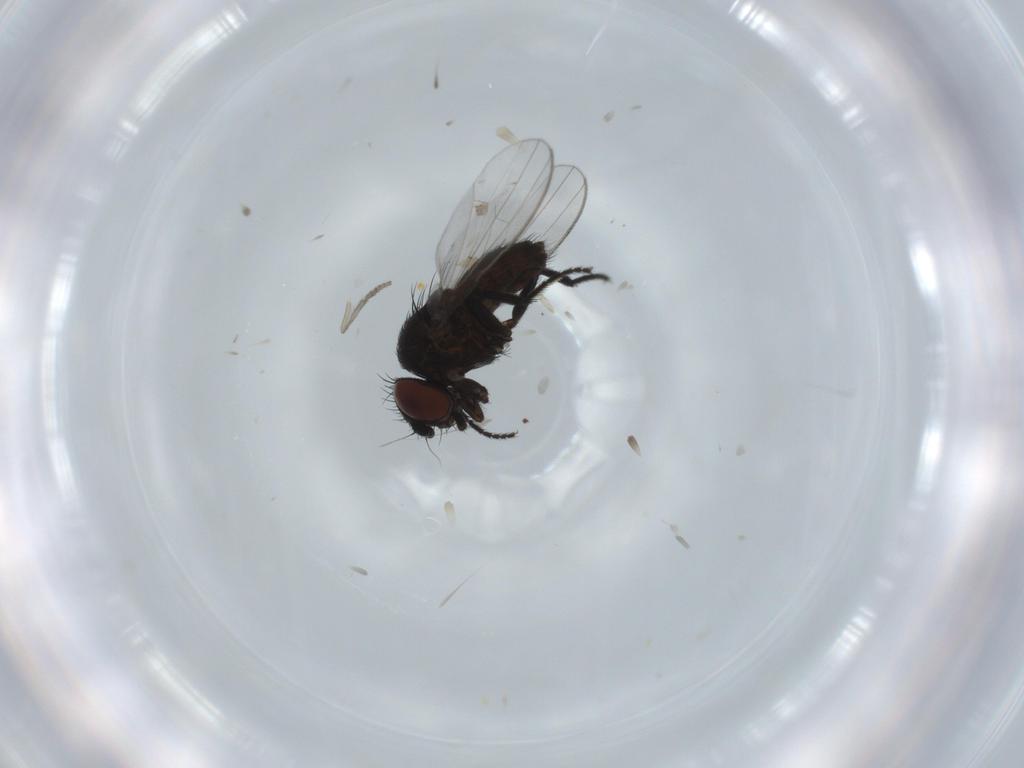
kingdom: Animalia
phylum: Arthropoda
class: Insecta
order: Diptera
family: Milichiidae
